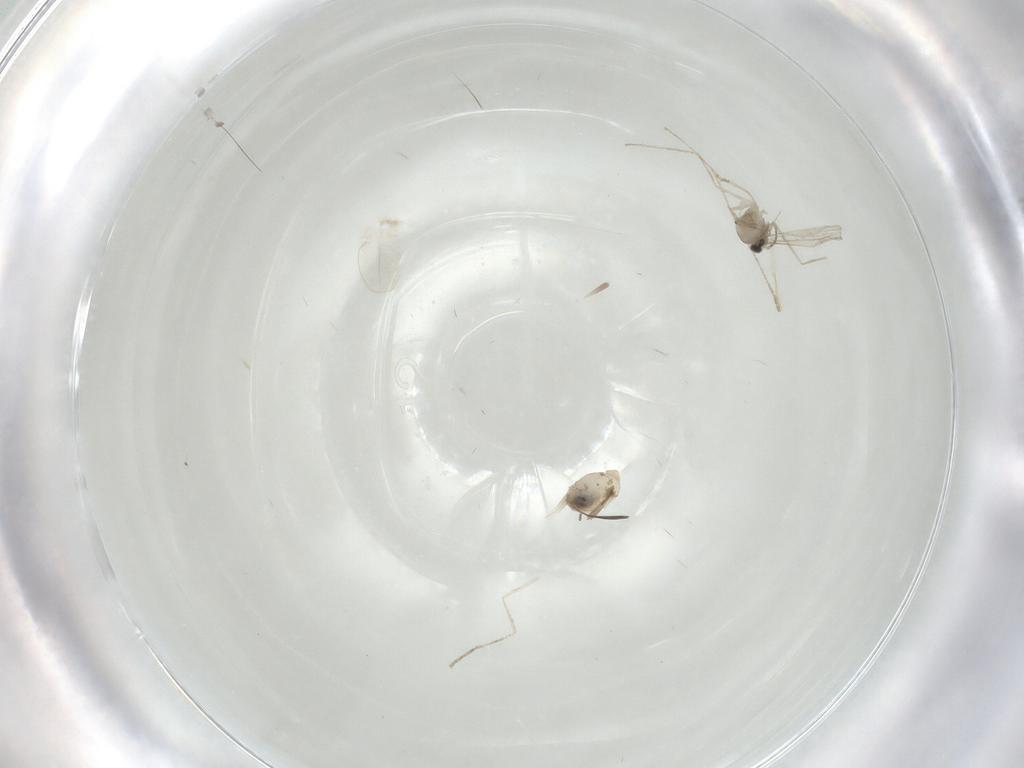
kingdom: Animalia
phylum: Arthropoda
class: Insecta
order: Diptera
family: Cecidomyiidae
